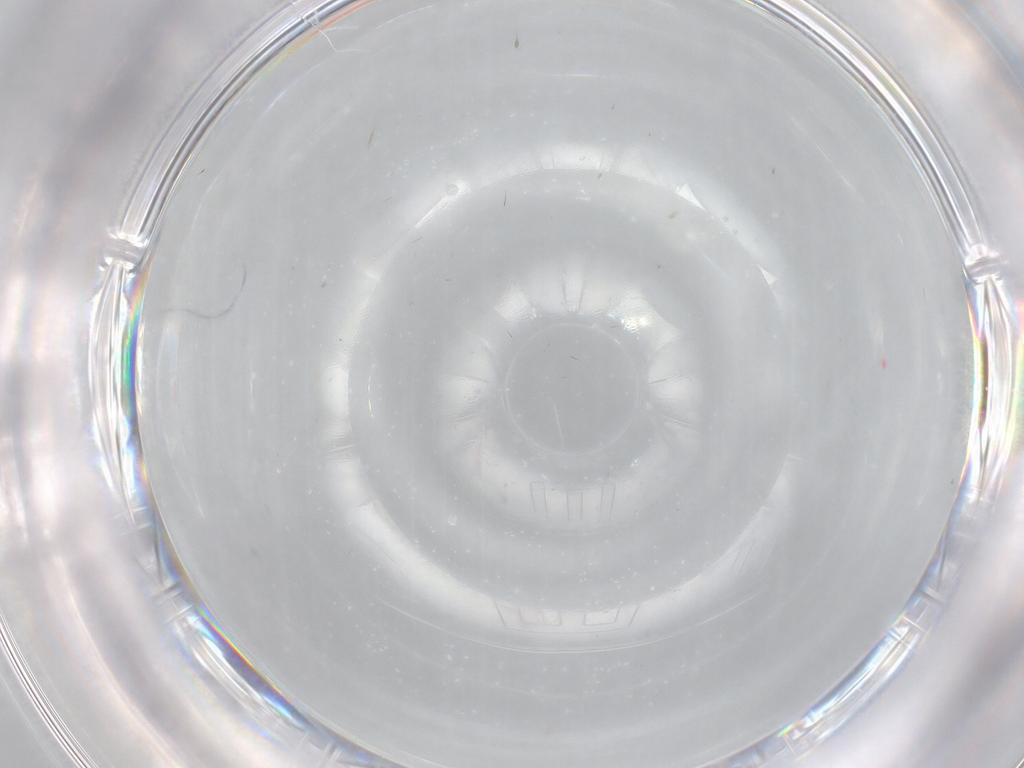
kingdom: Animalia
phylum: Arthropoda
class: Insecta
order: Orthoptera
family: Mogoplistidae
